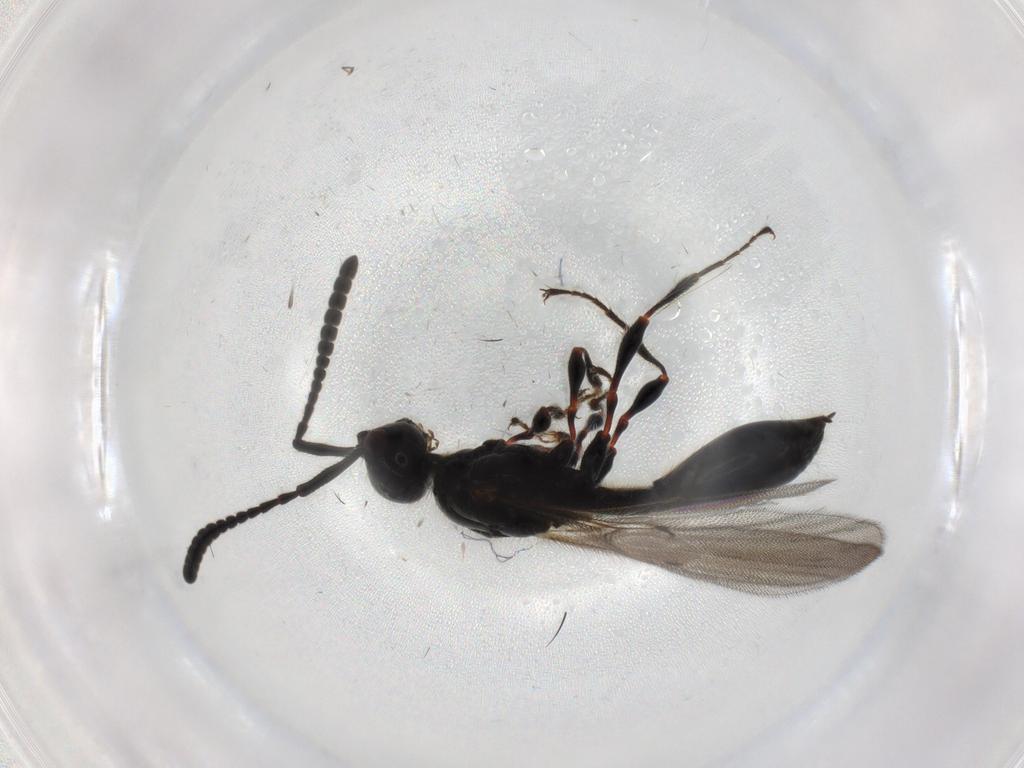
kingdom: Animalia
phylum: Arthropoda
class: Insecta
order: Hymenoptera
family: Diapriidae
